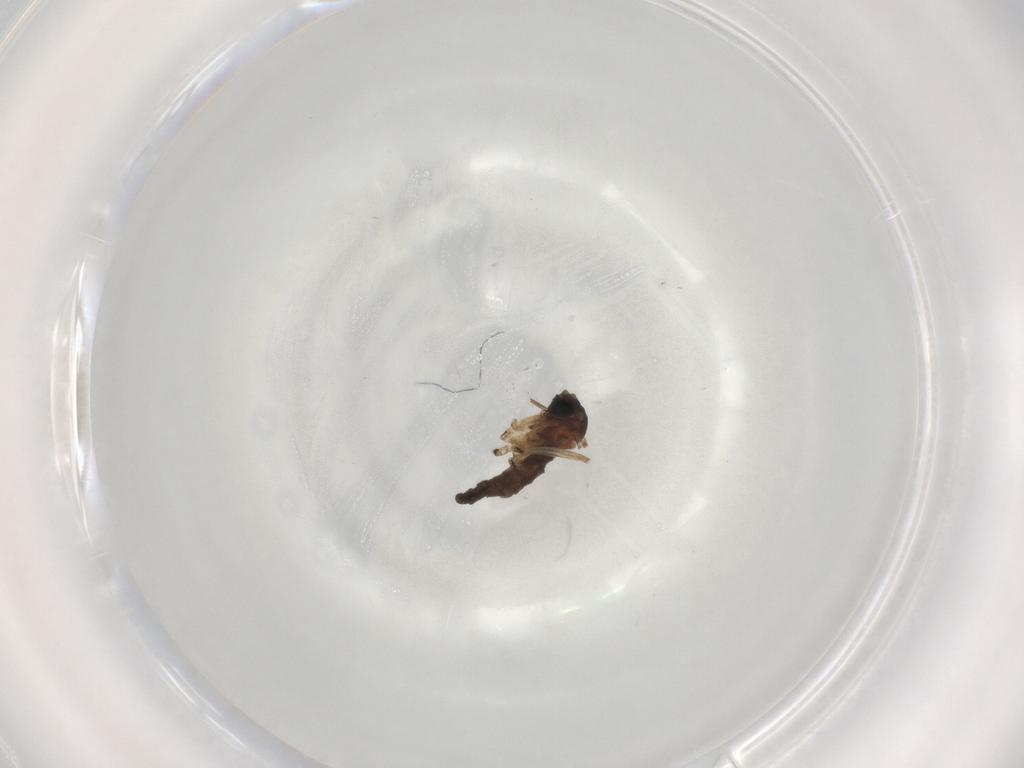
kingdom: Animalia
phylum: Arthropoda
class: Insecta
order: Diptera
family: Sciaridae
